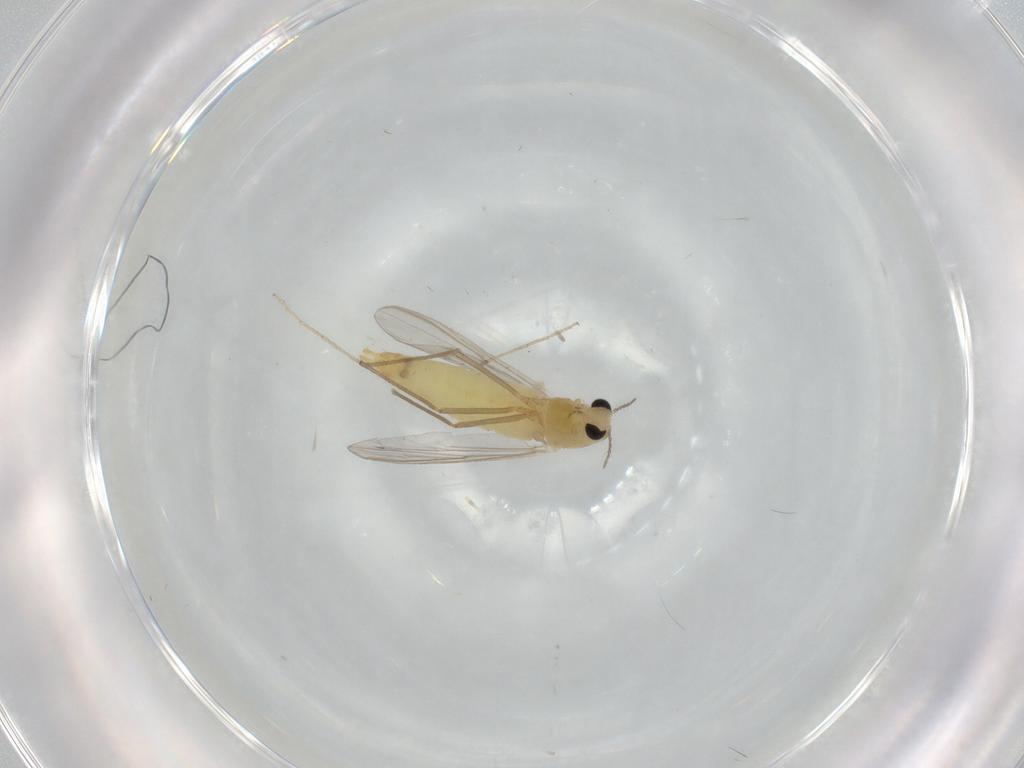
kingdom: Animalia
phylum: Arthropoda
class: Insecta
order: Diptera
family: Chironomidae
